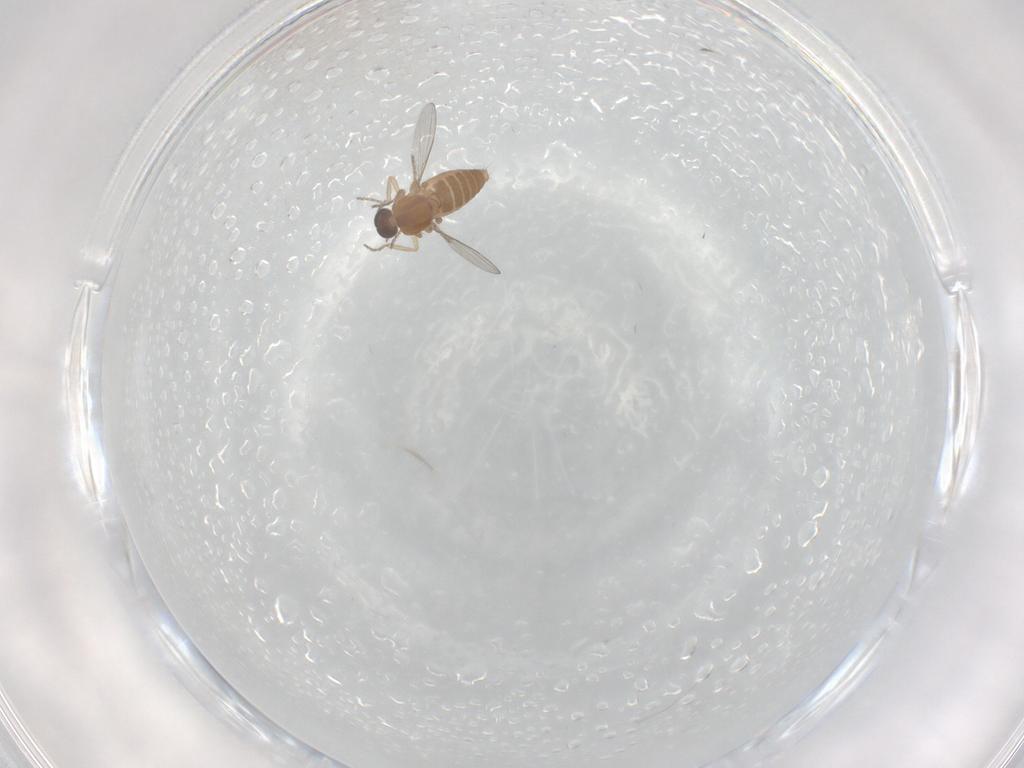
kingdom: Animalia
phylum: Arthropoda
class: Insecta
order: Diptera
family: Ceratopogonidae
